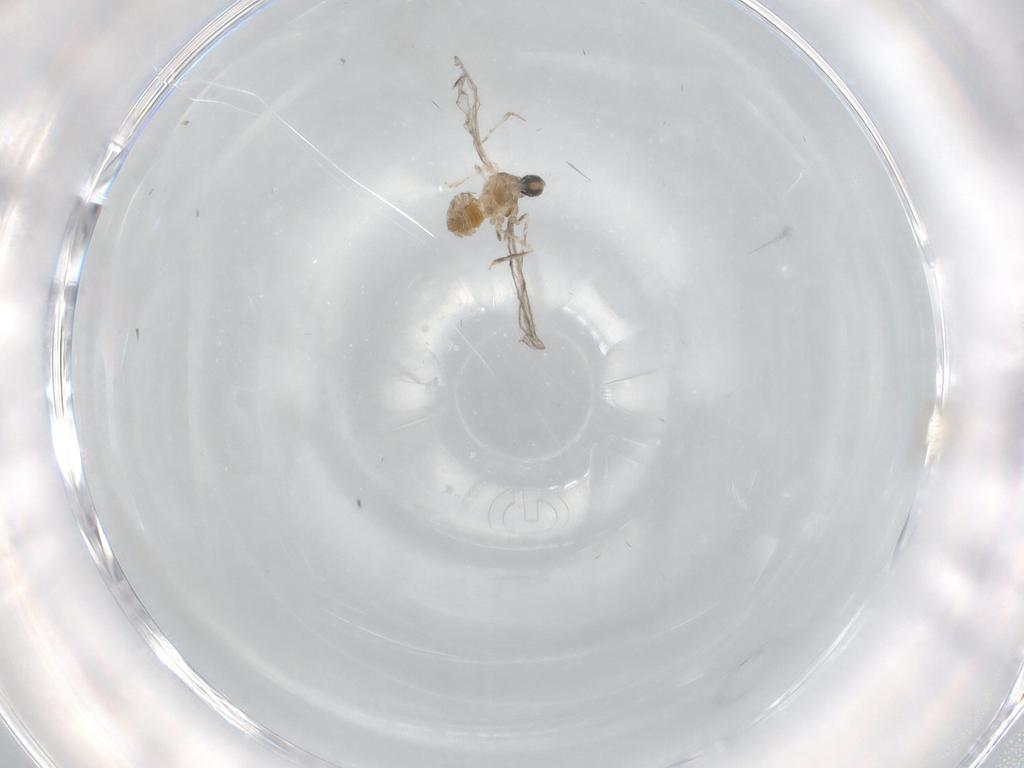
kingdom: Animalia
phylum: Arthropoda
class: Insecta
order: Diptera
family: Cecidomyiidae
